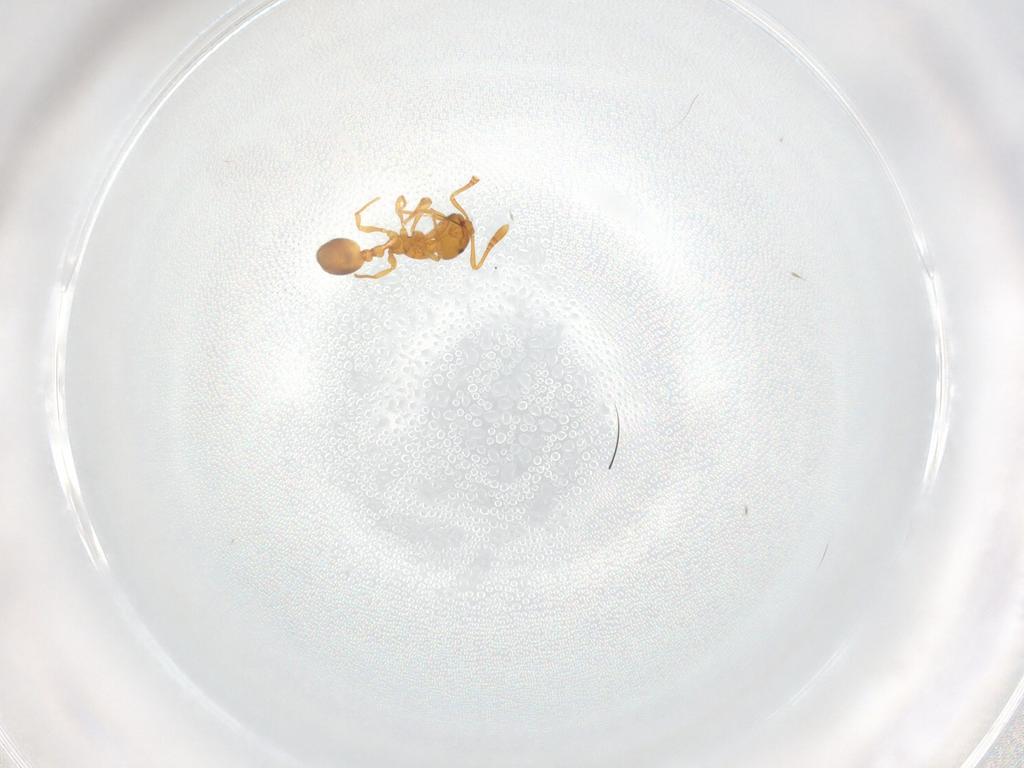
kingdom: Animalia
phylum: Arthropoda
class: Insecta
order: Hymenoptera
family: Formicidae
